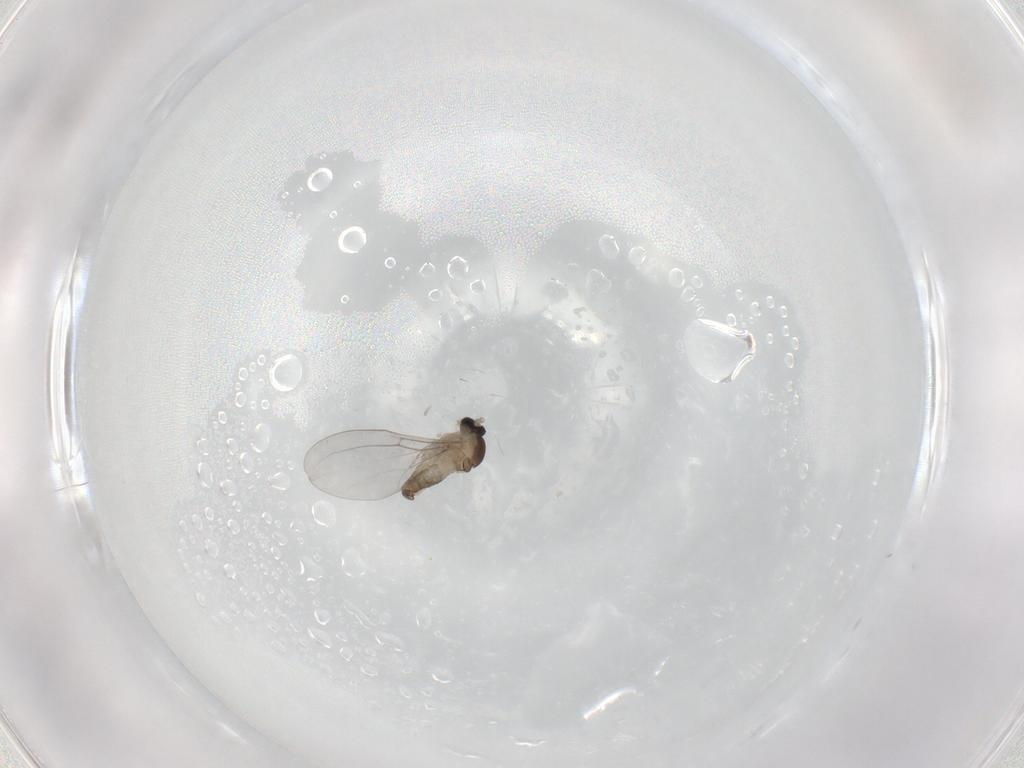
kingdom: Animalia
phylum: Arthropoda
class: Insecta
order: Diptera
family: Cecidomyiidae
